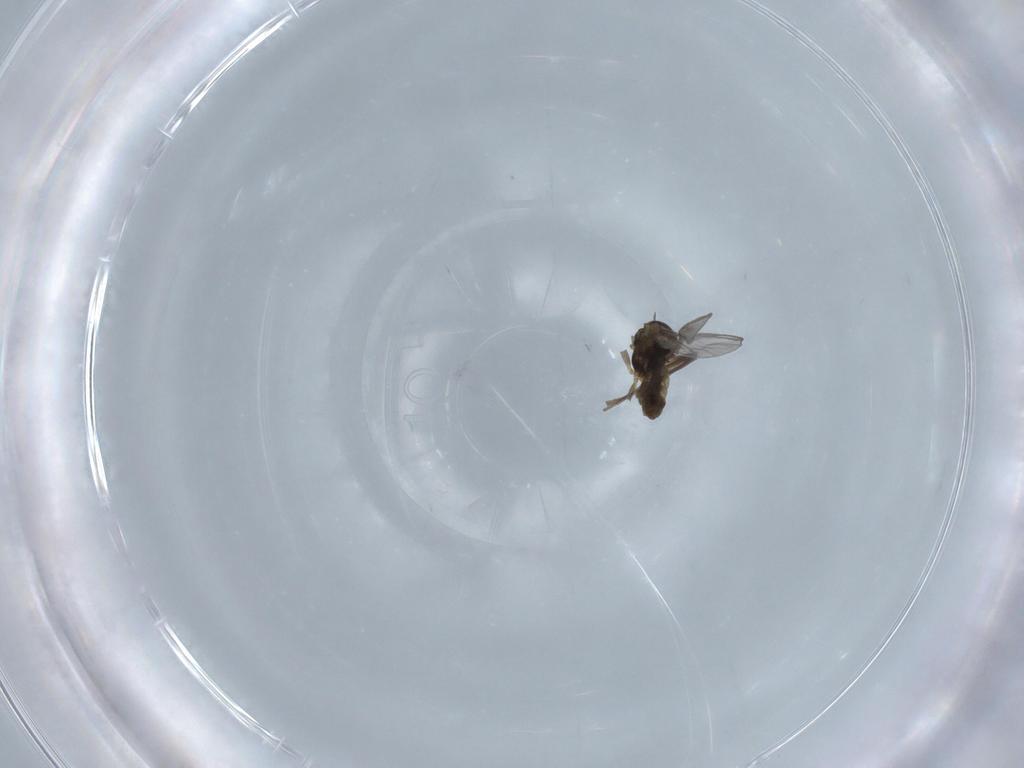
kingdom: Animalia
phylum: Arthropoda
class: Insecta
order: Diptera
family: Chironomidae
